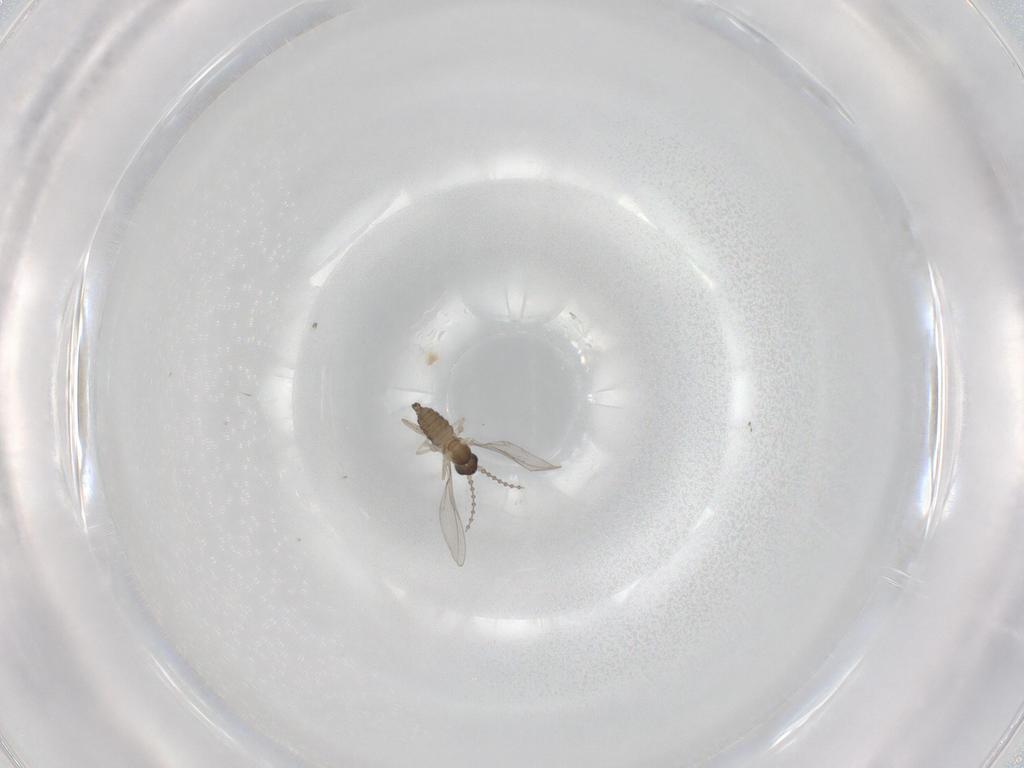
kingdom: Animalia
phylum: Arthropoda
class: Insecta
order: Diptera
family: Cecidomyiidae
